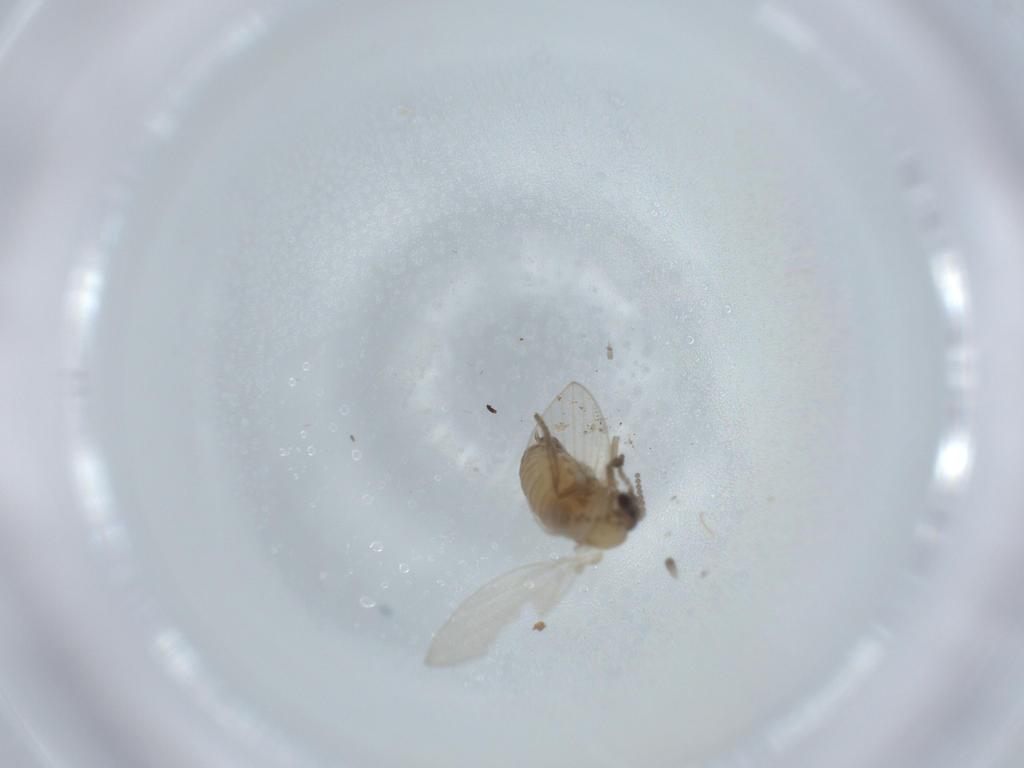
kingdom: Animalia
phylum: Arthropoda
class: Insecta
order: Diptera
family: Psychodidae
